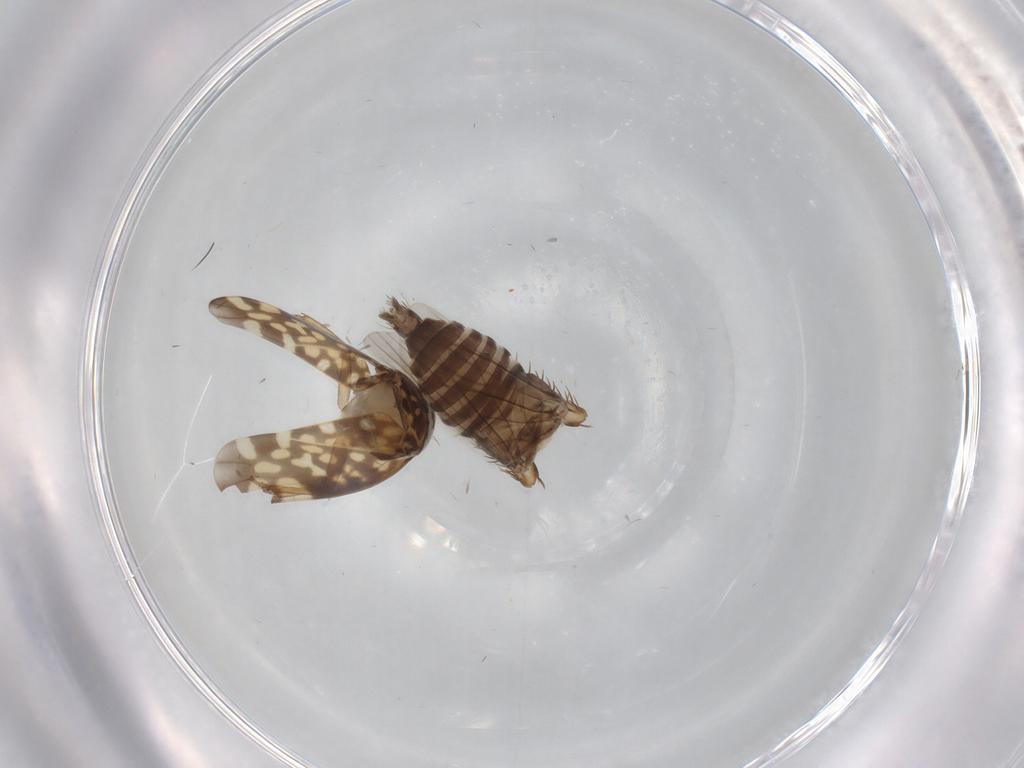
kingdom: Animalia
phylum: Arthropoda
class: Insecta
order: Hemiptera
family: Cicadellidae
